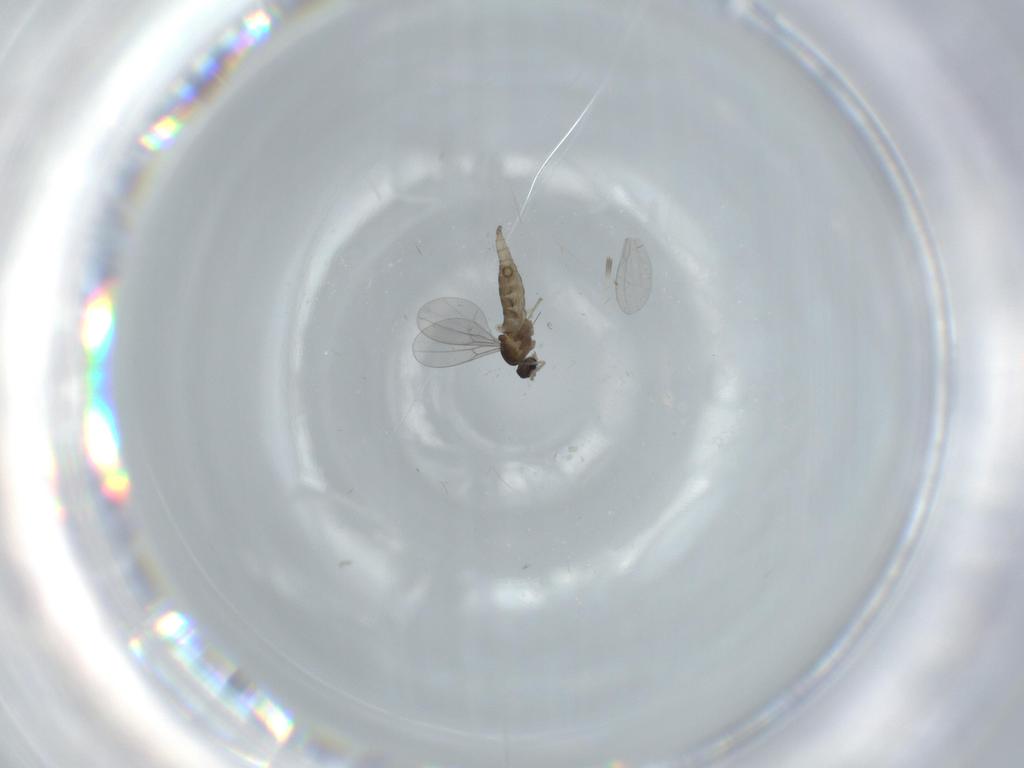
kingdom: Animalia
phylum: Arthropoda
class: Insecta
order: Diptera
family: Cecidomyiidae
